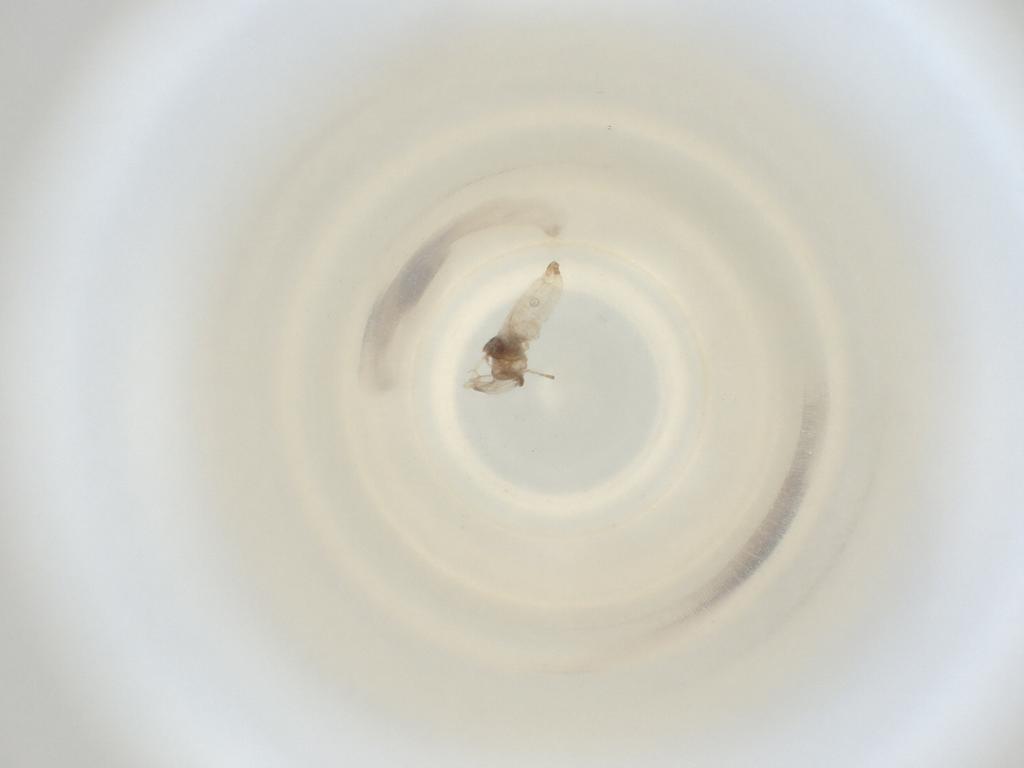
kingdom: Animalia
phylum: Arthropoda
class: Insecta
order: Diptera
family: Cecidomyiidae
